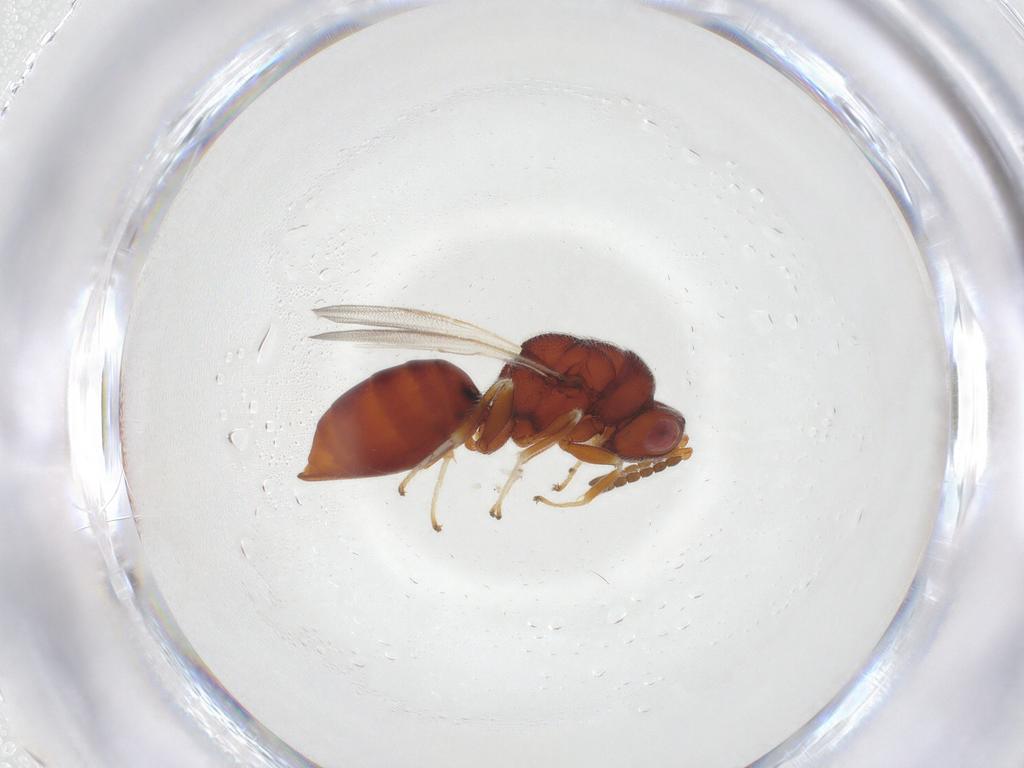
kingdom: Animalia
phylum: Arthropoda
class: Insecta
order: Hymenoptera
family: Eurytomidae
